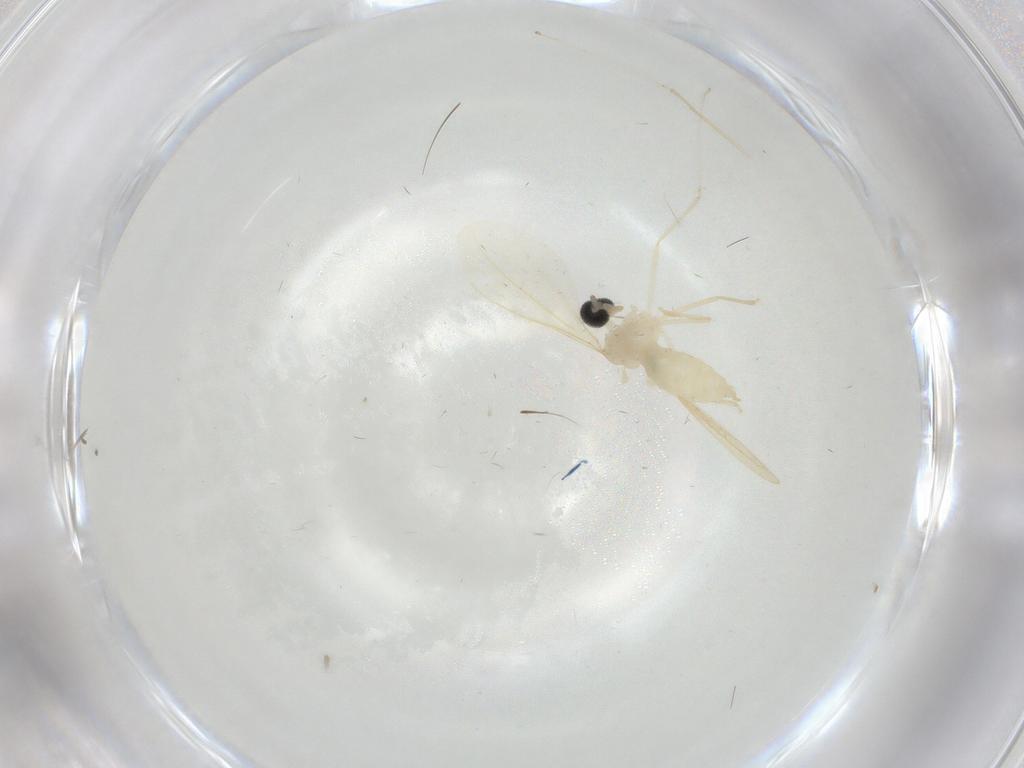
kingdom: Animalia
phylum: Arthropoda
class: Insecta
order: Diptera
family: Cecidomyiidae
